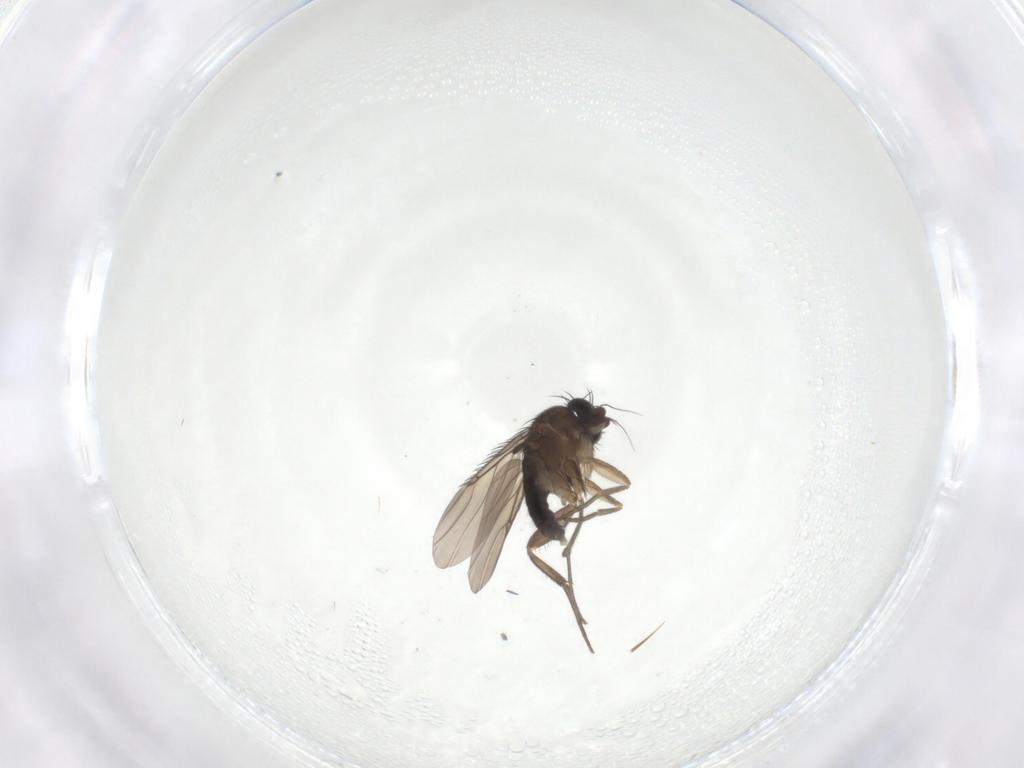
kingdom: Animalia
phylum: Arthropoda
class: Insecta
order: Diptera
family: Phoridae
